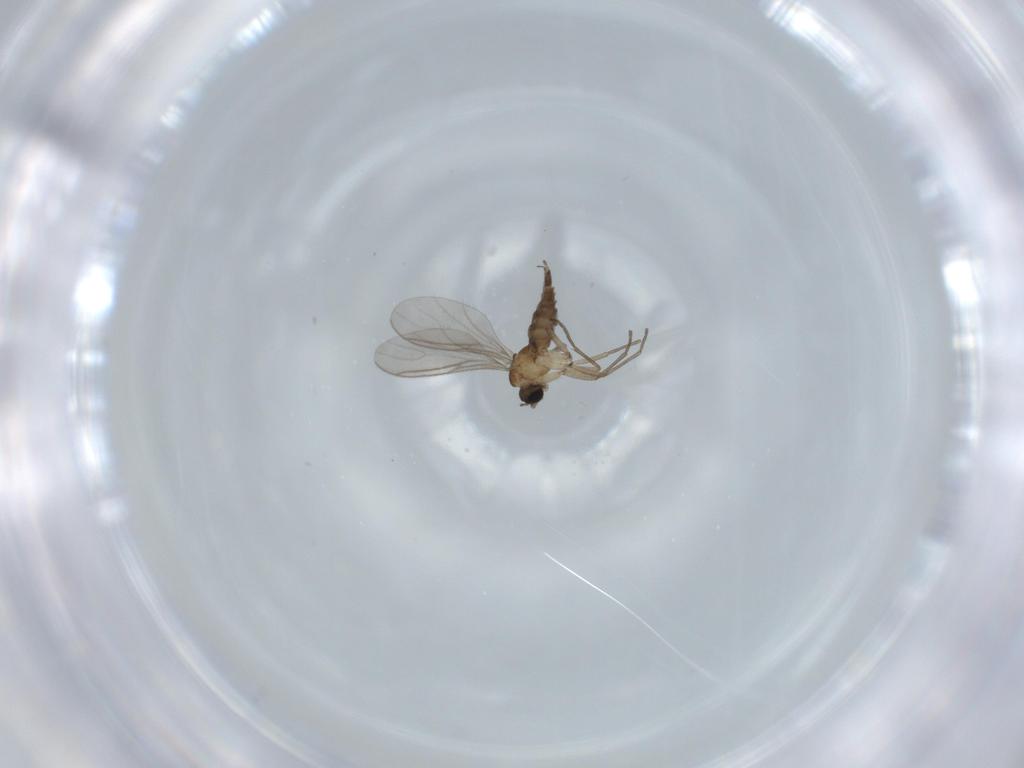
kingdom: Animalia
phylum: Arthropoda
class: Insecta
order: Diptera
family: Sciaridae
